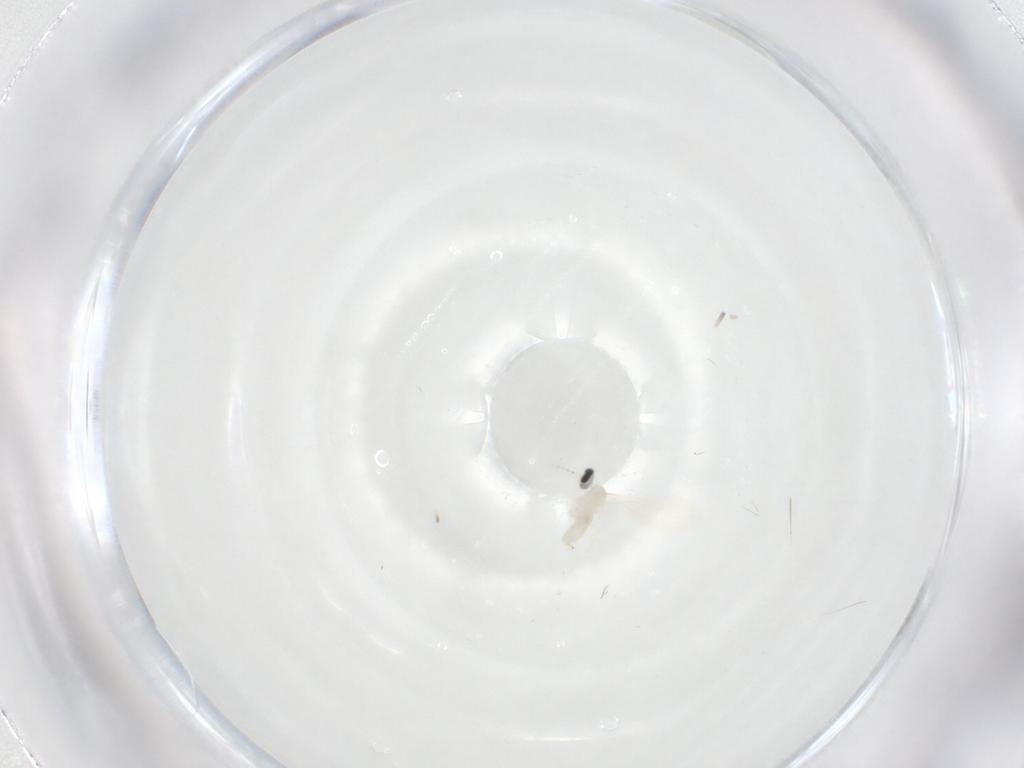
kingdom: Animalia
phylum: Arthropoda
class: Insecta
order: Diptera
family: Cecidomyiidae
